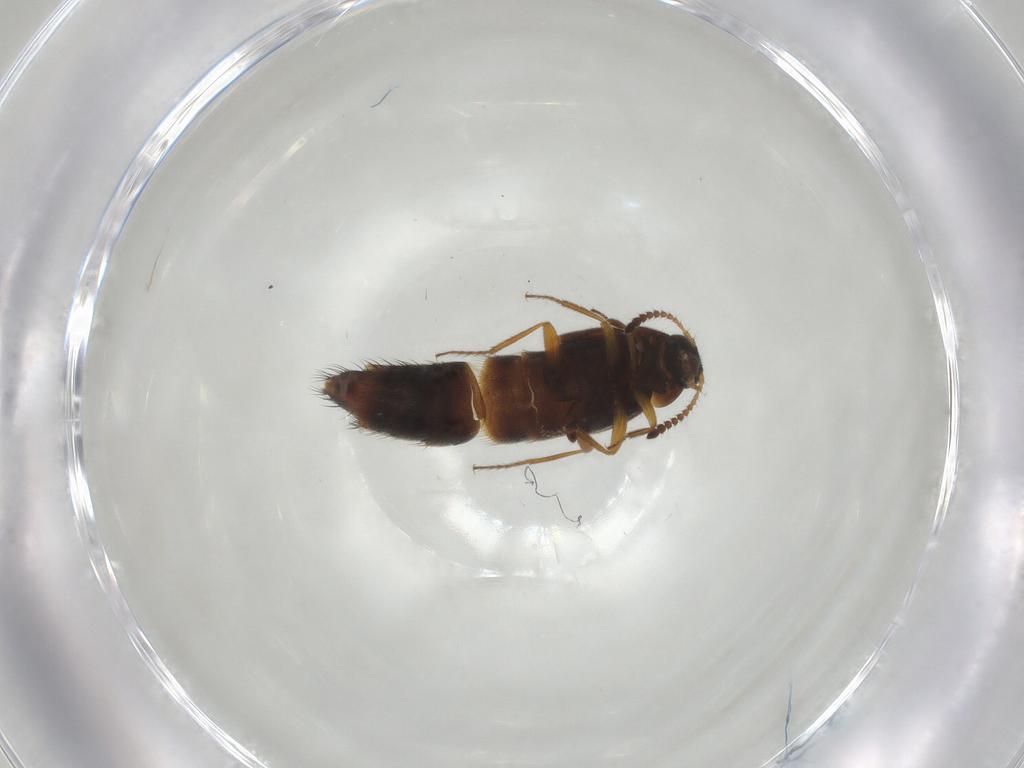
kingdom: Animalia
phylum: Arthropoda
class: Insecta
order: Coleoptera
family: Staphylinidae
